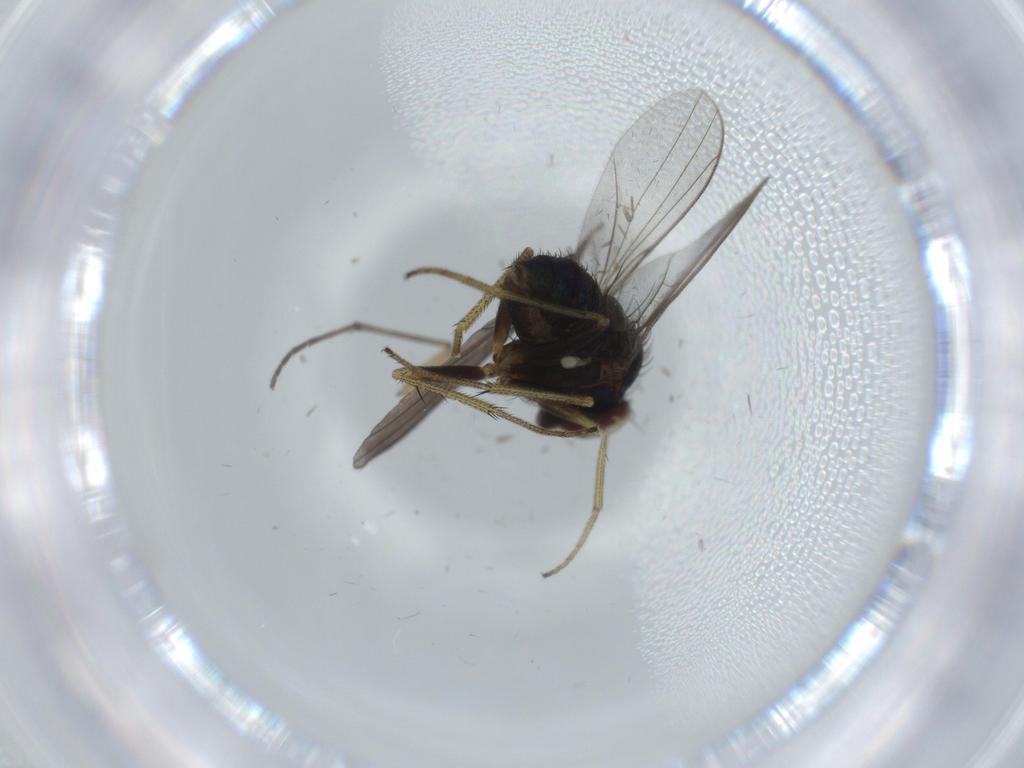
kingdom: Animalia
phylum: Arthropoda
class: Insecta
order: Diptera
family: Sciaridae
